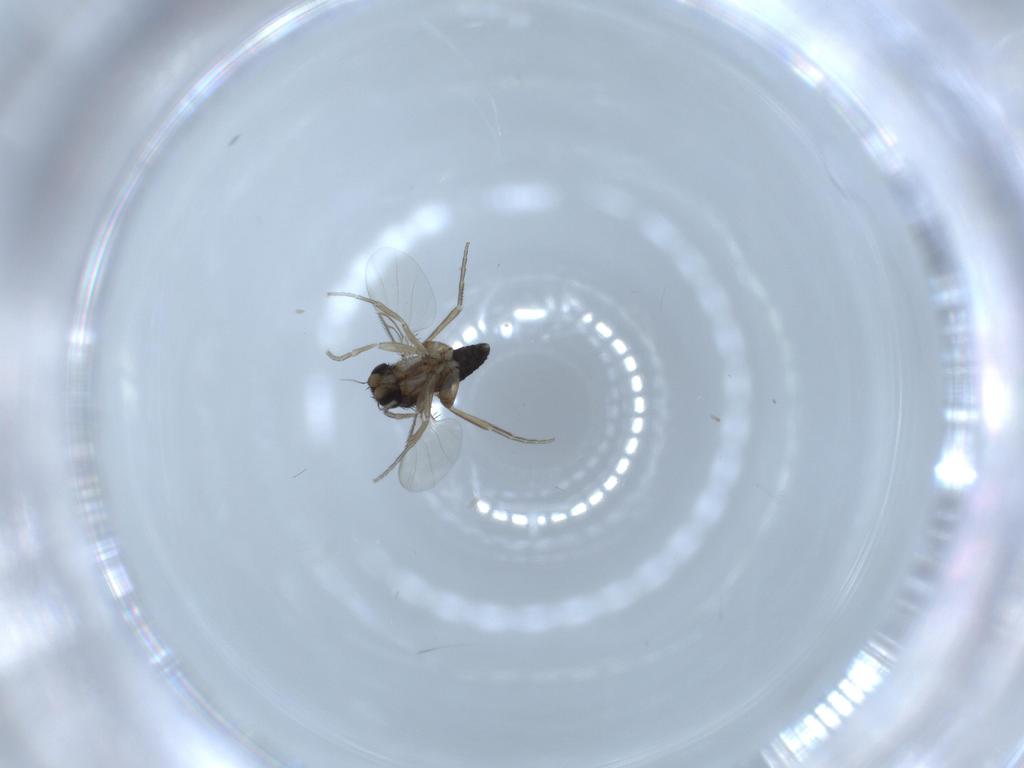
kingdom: Animalia
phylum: Arthropoda
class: Insecta
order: Diptera
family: Phoridae
